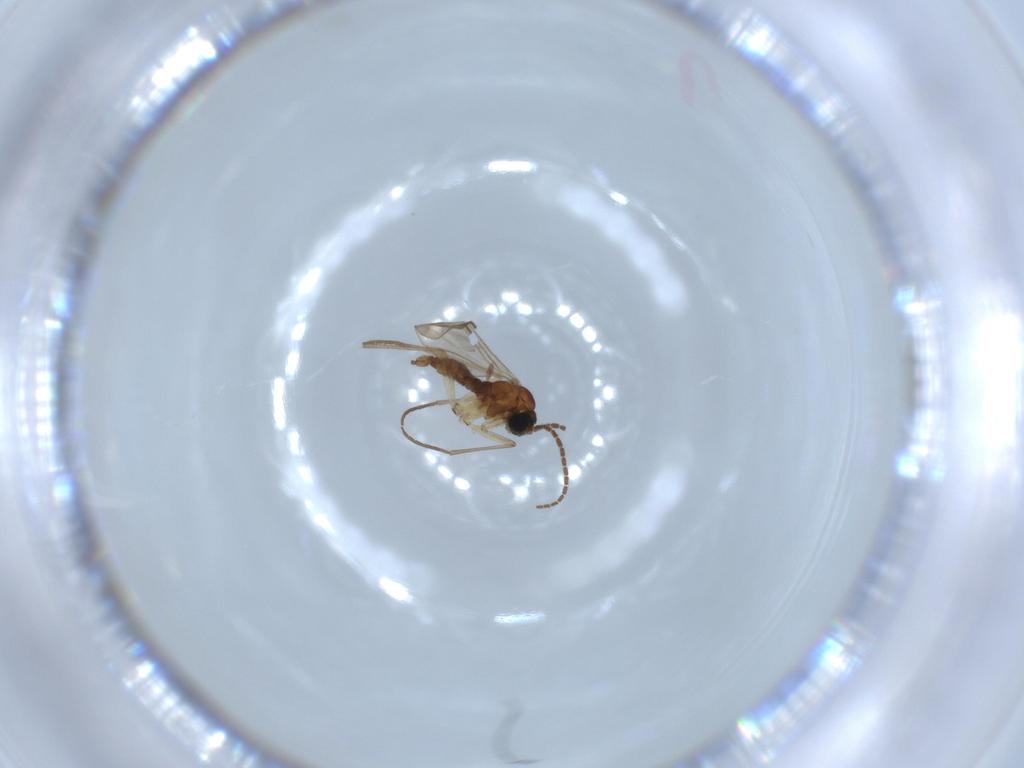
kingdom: Animalia
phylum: Arthropoda
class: Insecta
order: Diptera
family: Sciaridae
